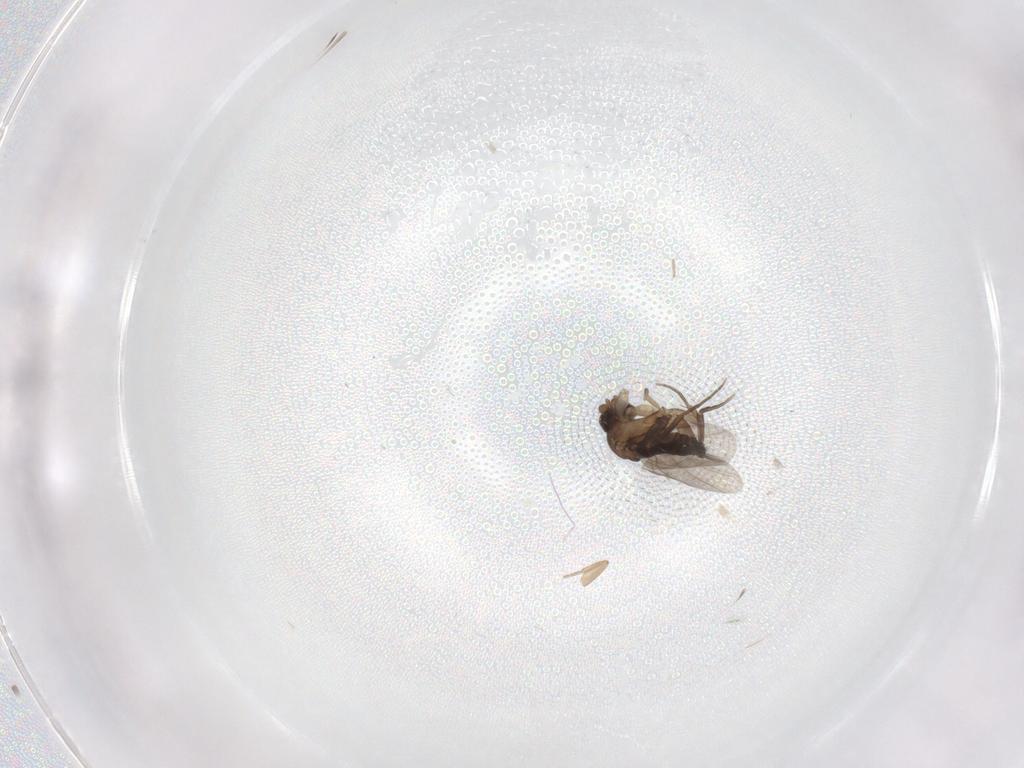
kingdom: Animalia
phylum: Arthropoda
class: Insecta
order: Diptera
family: Phoridae
